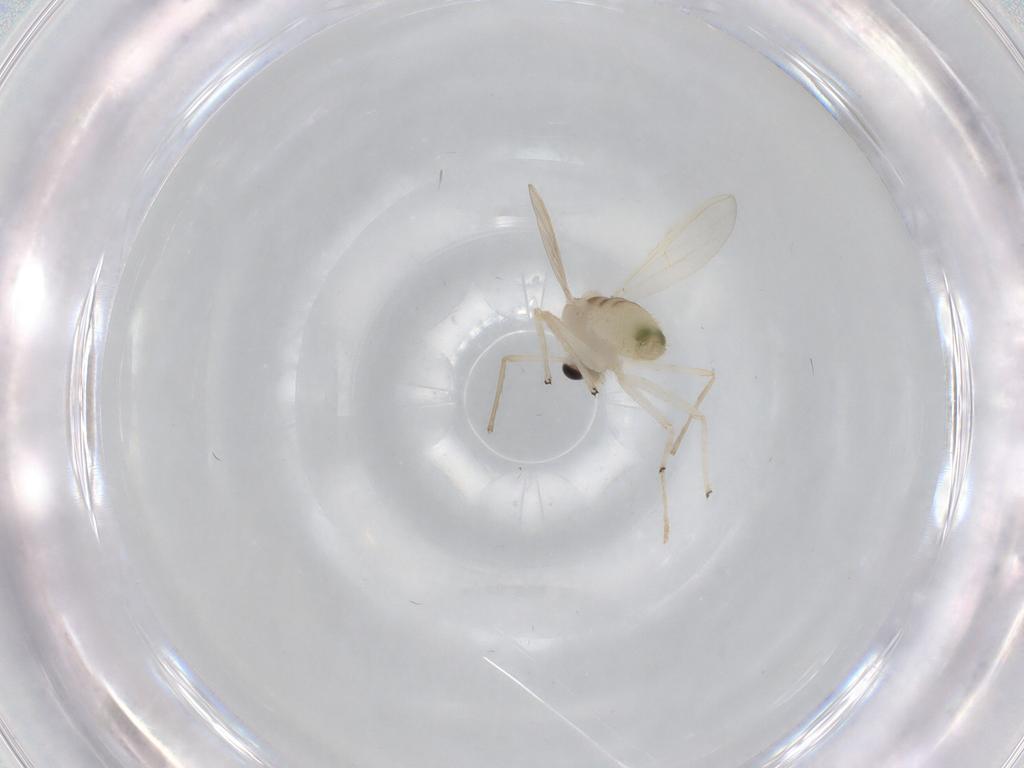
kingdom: Animalia
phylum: Arthropoda
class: Insecta
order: Diptera
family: Chironomidae
